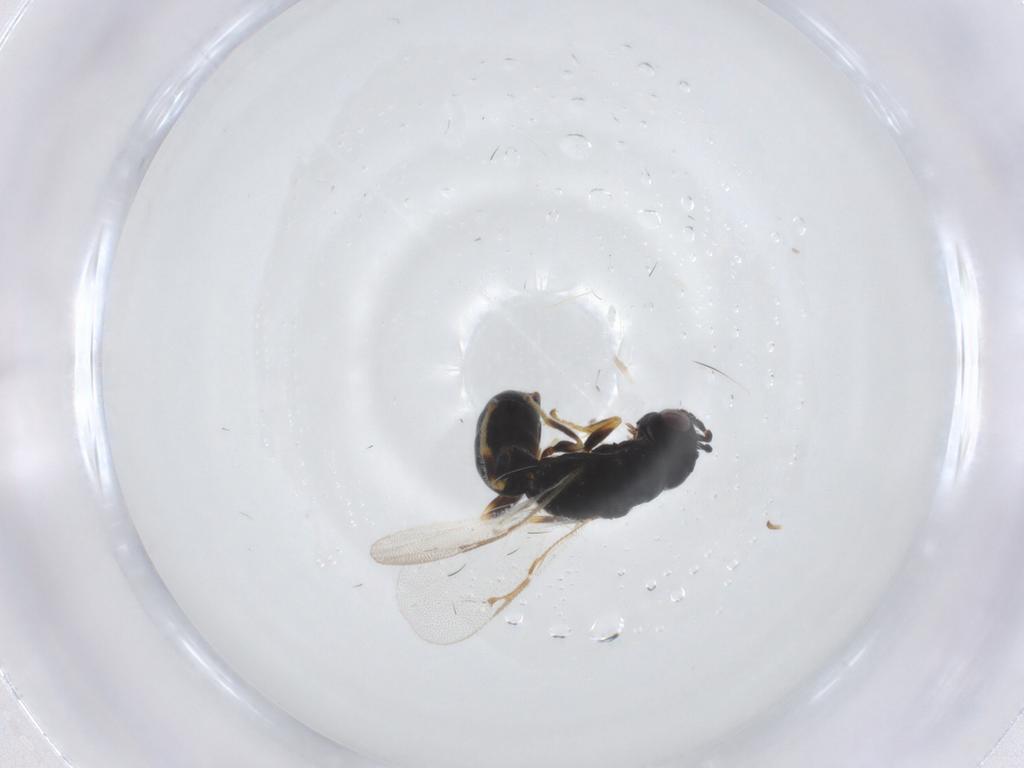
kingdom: Animalia
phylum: Arthropoda
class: Insecta
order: Hymenoptera
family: Eurytomidae
